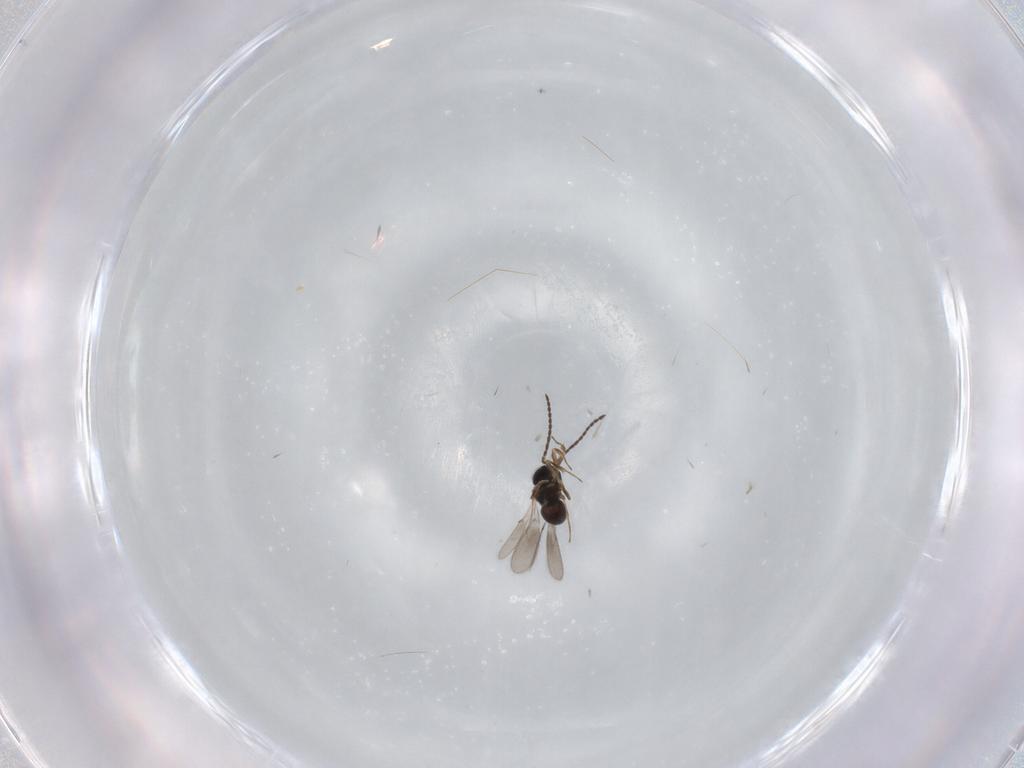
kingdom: Animalia
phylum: Arthropoda
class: Insecta
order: Hymenoptera
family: Scelionidae
